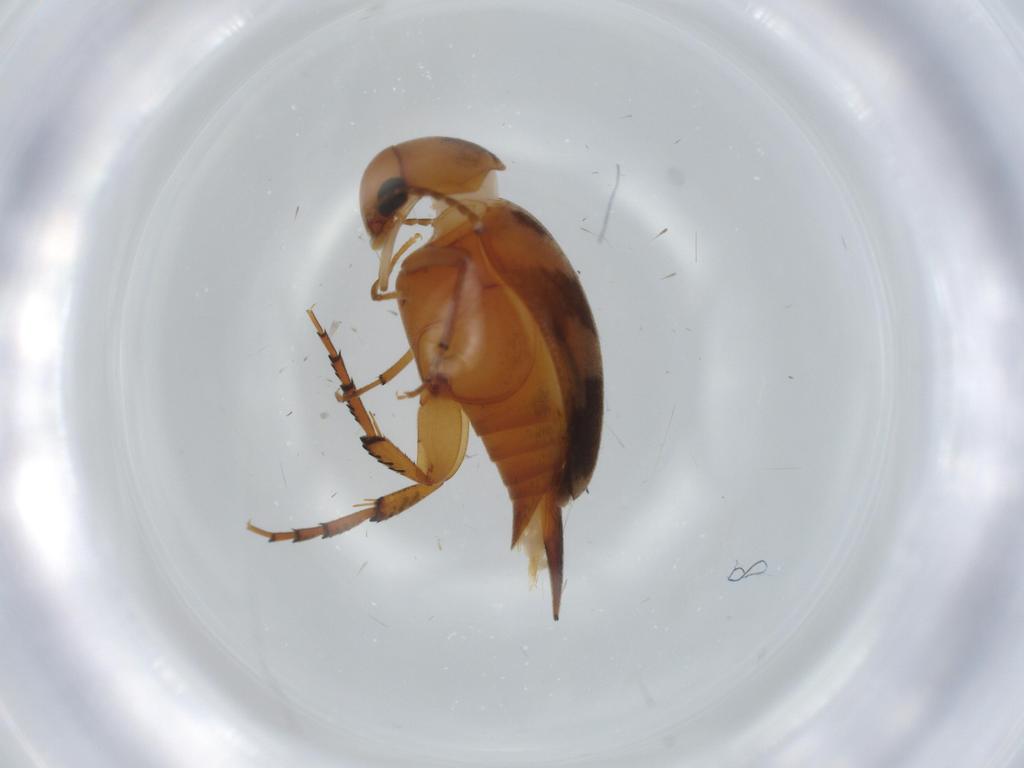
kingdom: Animalia
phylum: Arthropoda
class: Insecta
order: Coleoptera
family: Mordellidae
